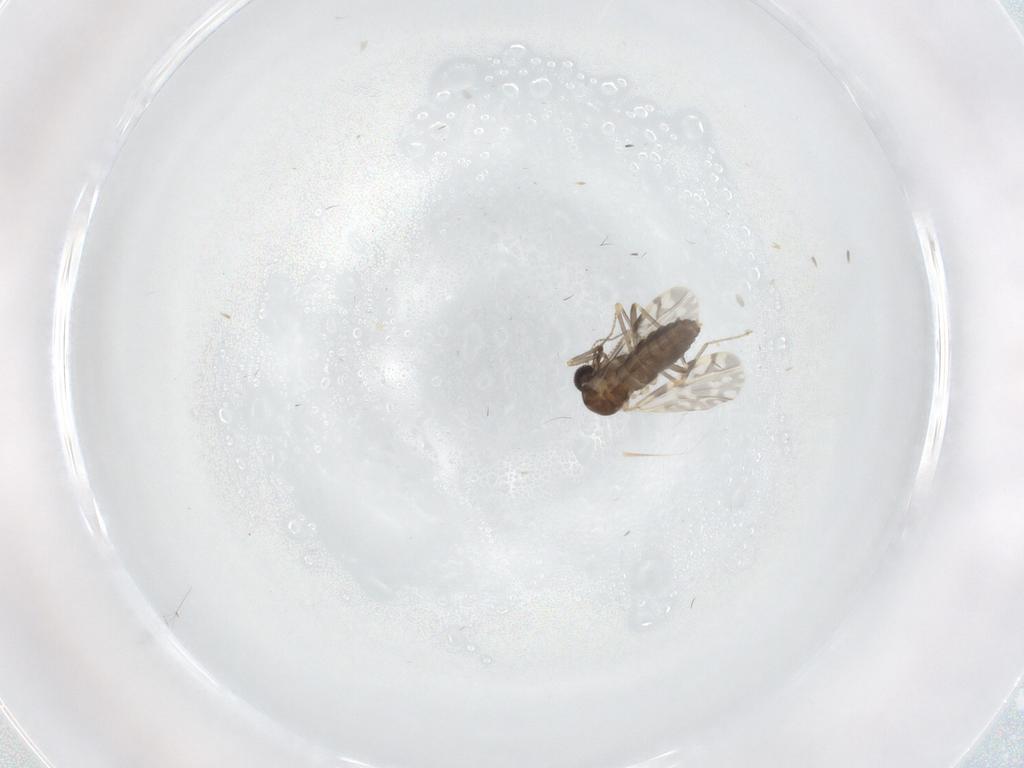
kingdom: Animalia
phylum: Arthropoda
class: Insecta
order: Diptera
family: Ceratopogonidae
